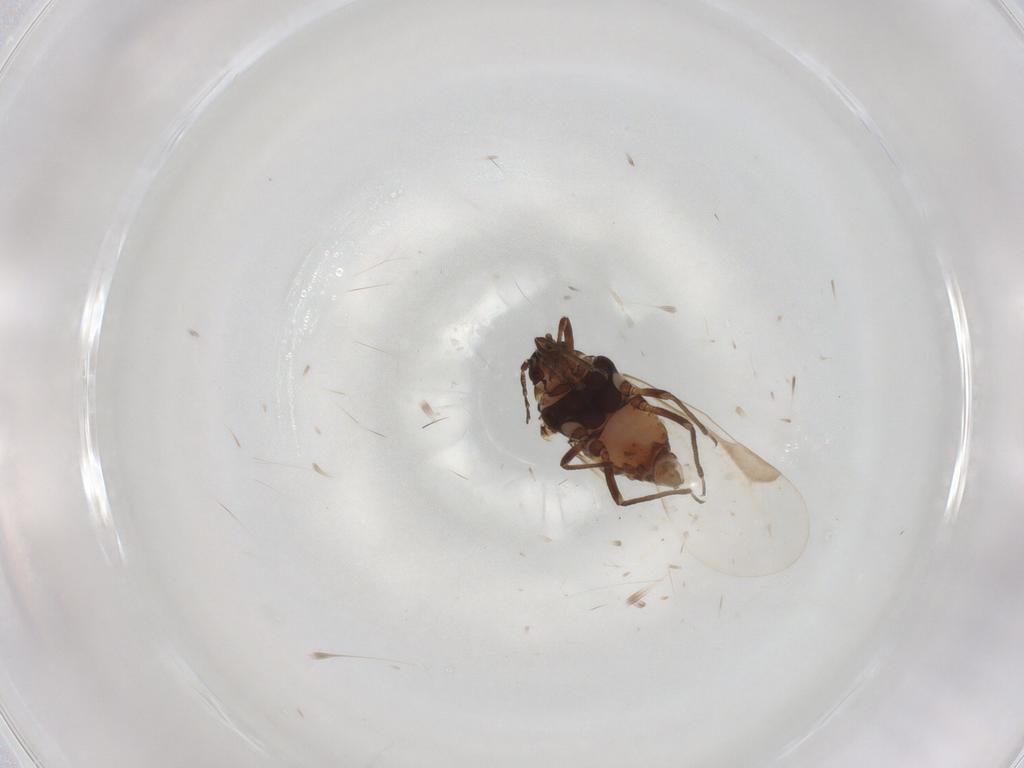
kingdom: Animalia
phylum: Arthropoda
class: Insecta
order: Hemiptera
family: Aphididae
